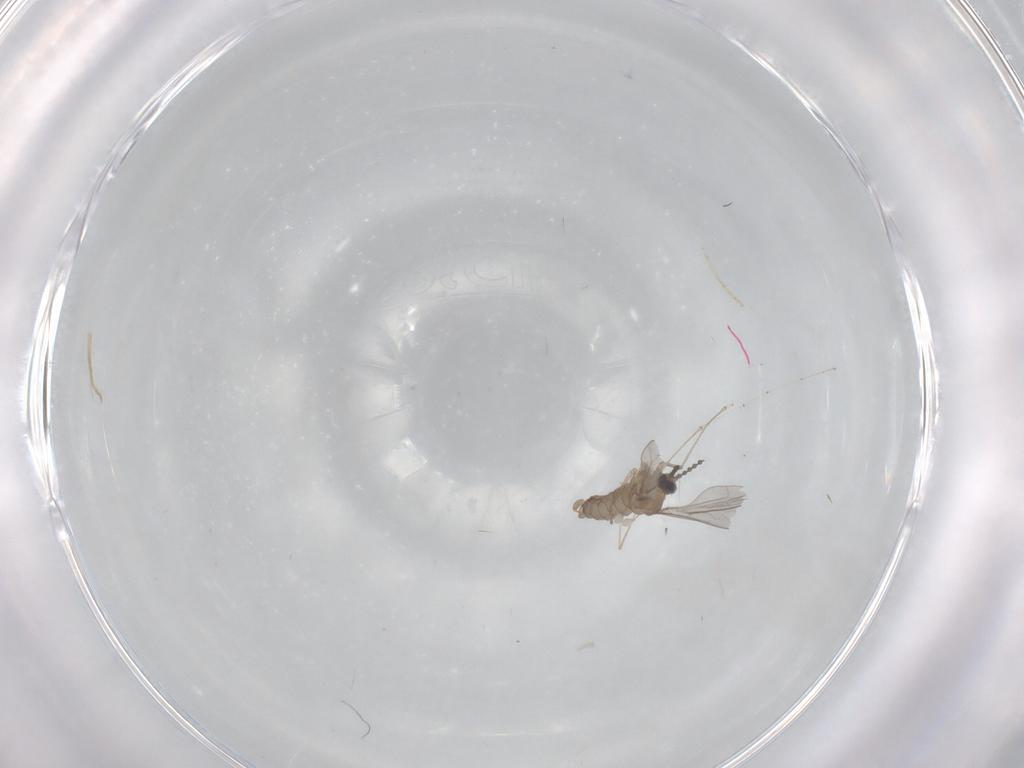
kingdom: Animalia
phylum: Arthropoda
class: Insecta
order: Diptera
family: Cecidomyiidae
